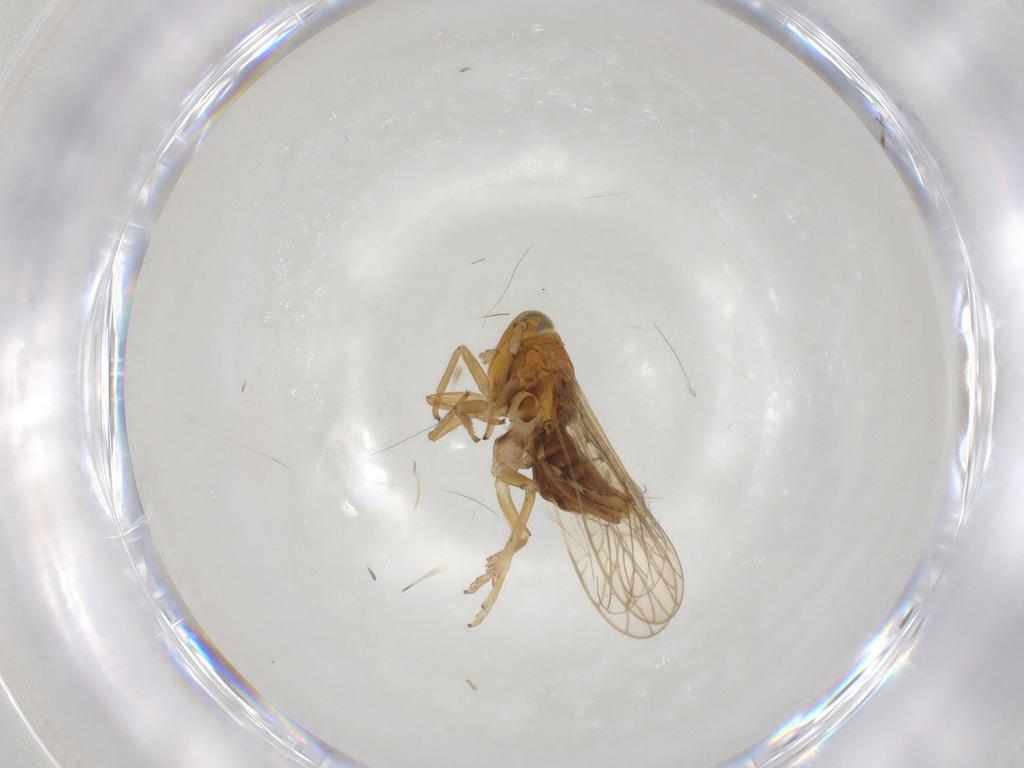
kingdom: Animalia
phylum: Arthropoda
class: Insecta
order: Hemiptera
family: Delphacidae
